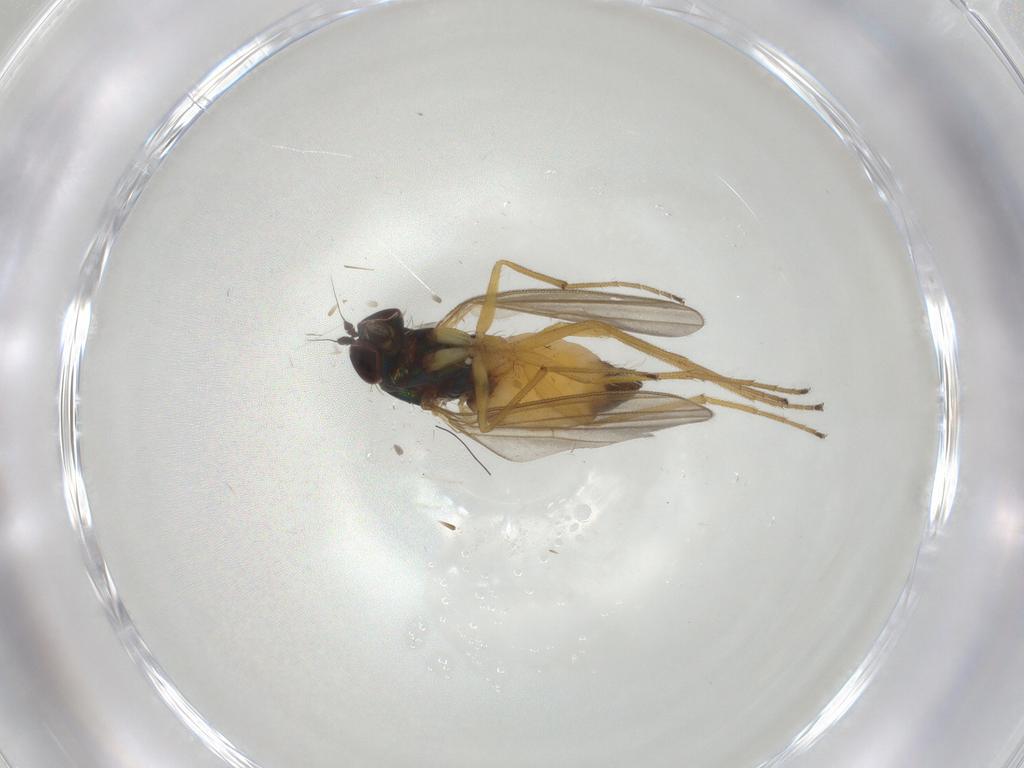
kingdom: Animalia
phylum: Arthropoda
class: Insecta
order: Diptera
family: Dolichopodidae
